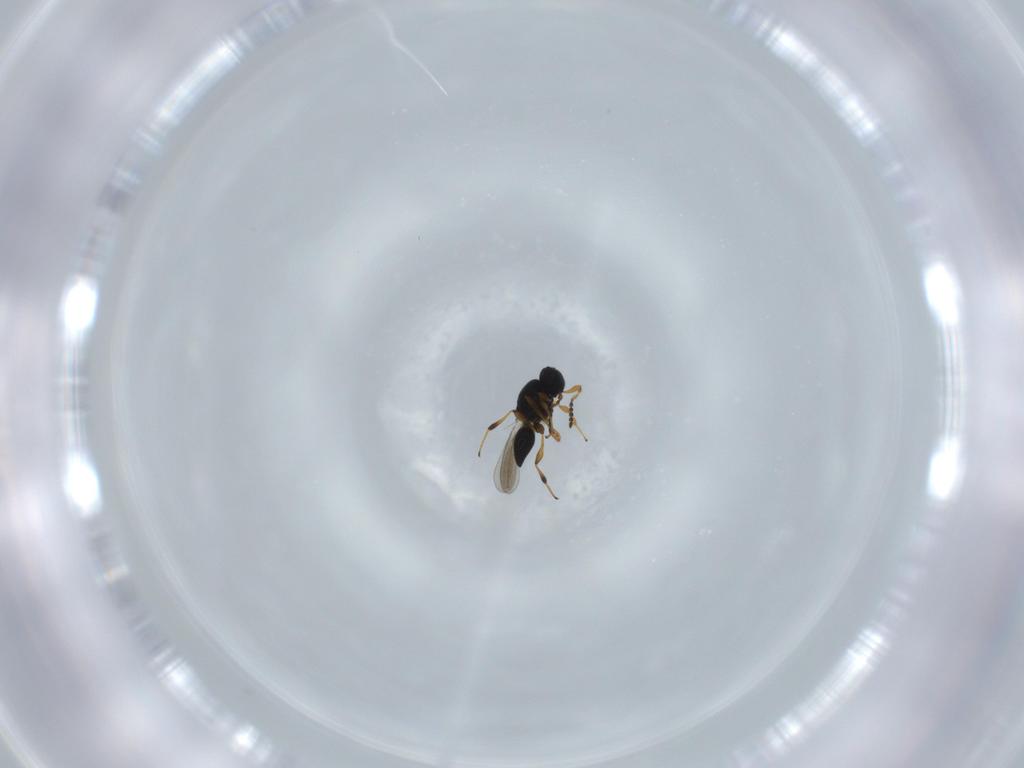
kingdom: Animalia
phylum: Arthropoda
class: Insecta
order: Hymenoptera
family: Platygastridae
